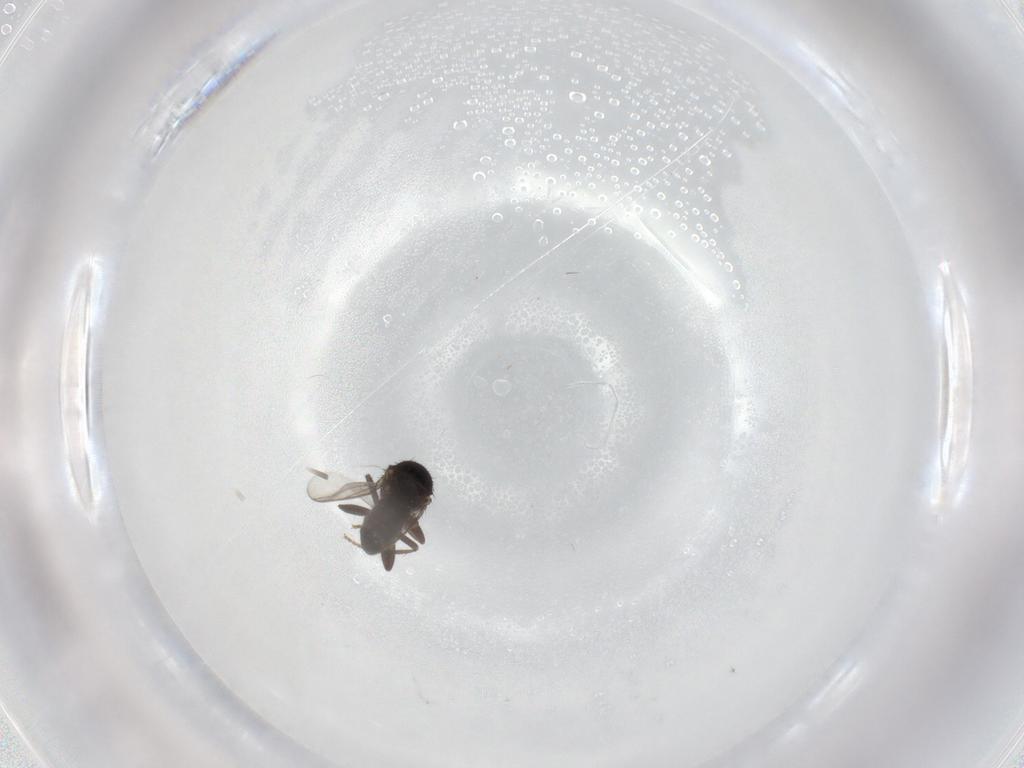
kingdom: Animalia
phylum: Arthropoda
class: Insecta
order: Diptera
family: Sphaeroceridae
